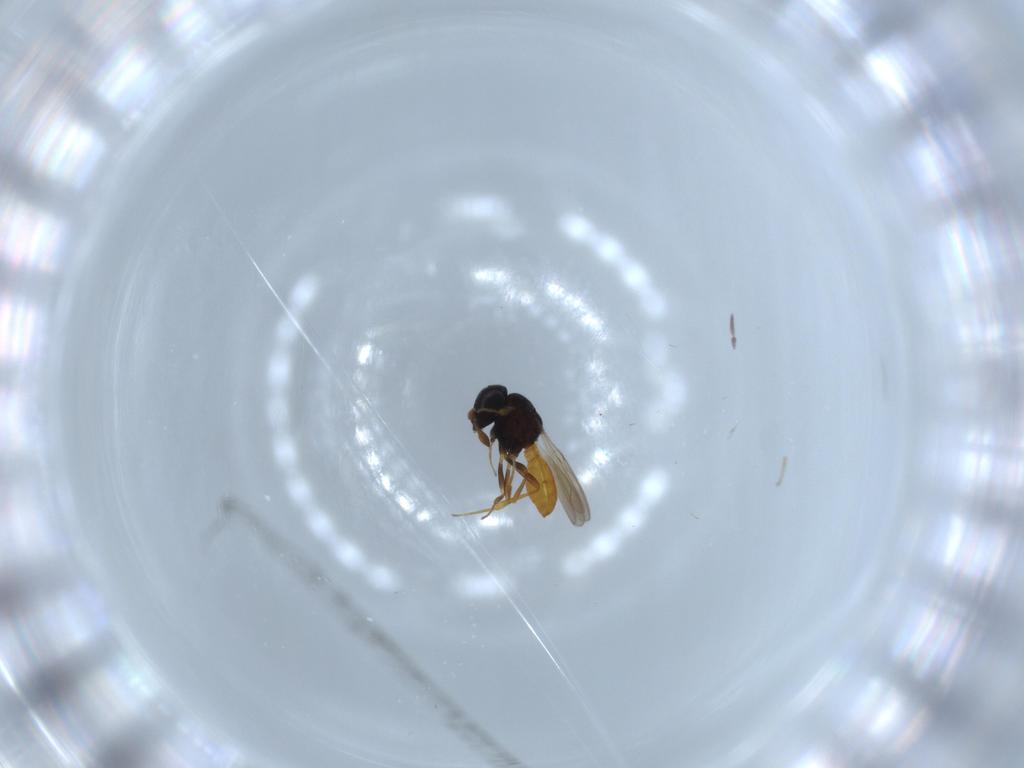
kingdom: Animalia
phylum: Arthropoda
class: Insecta
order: Hymenoptera
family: Scelionidae
